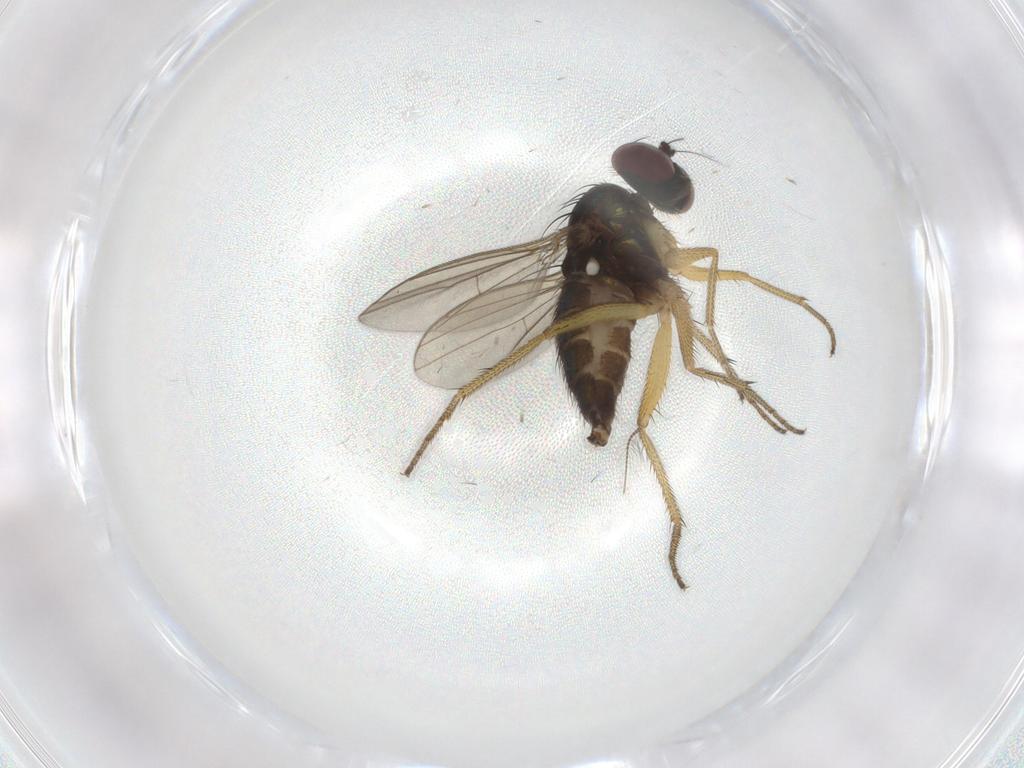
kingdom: Animalia
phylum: Arthropoda
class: Insecta
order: Diptera
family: Dolichopodidae
